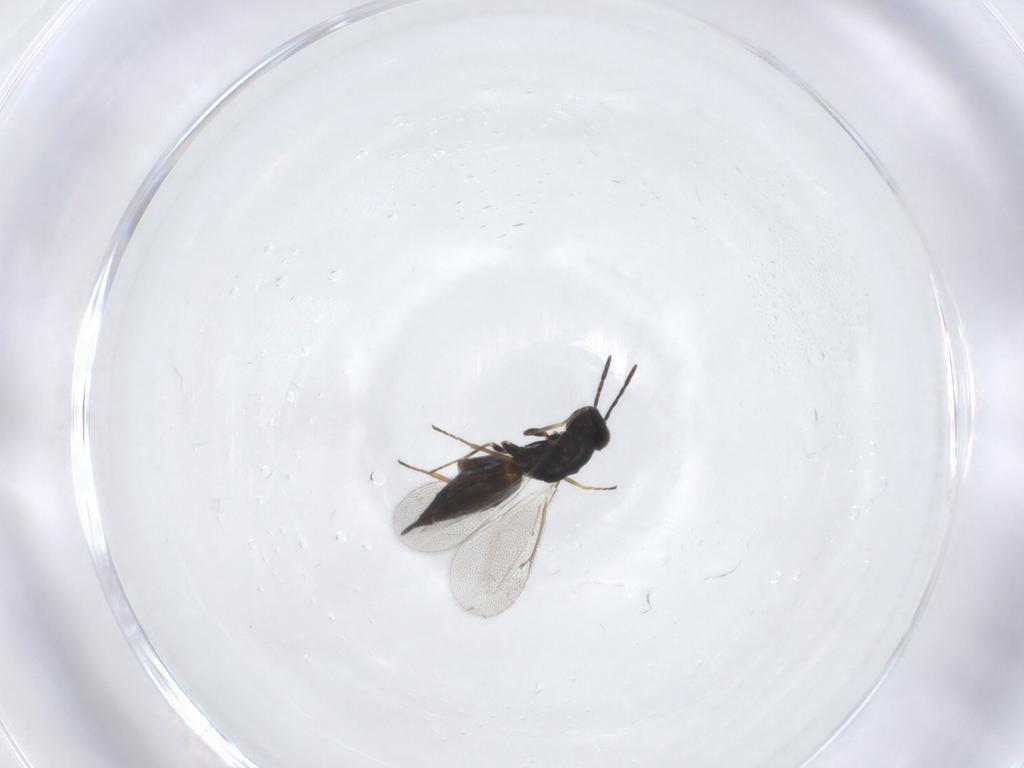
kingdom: Animalia
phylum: Arthropoda
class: Insecta
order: Hymenoptera
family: Eulophidae
